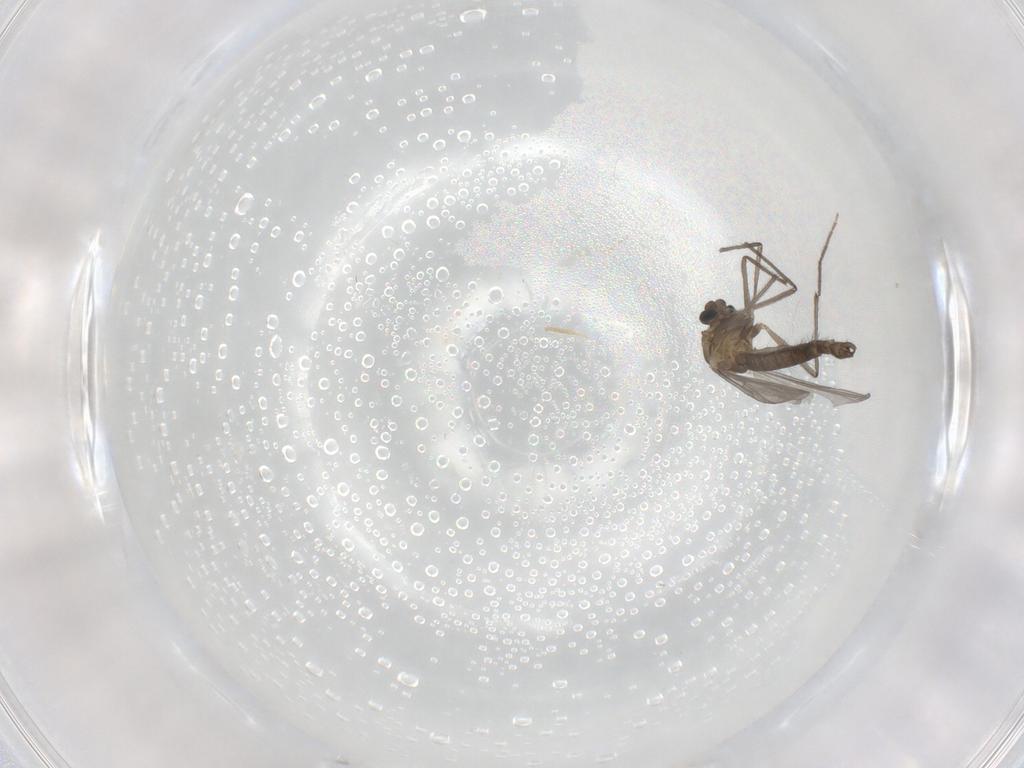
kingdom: Animalia
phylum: Arthropoda
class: Insecta
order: Diptera
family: Chironomidae
